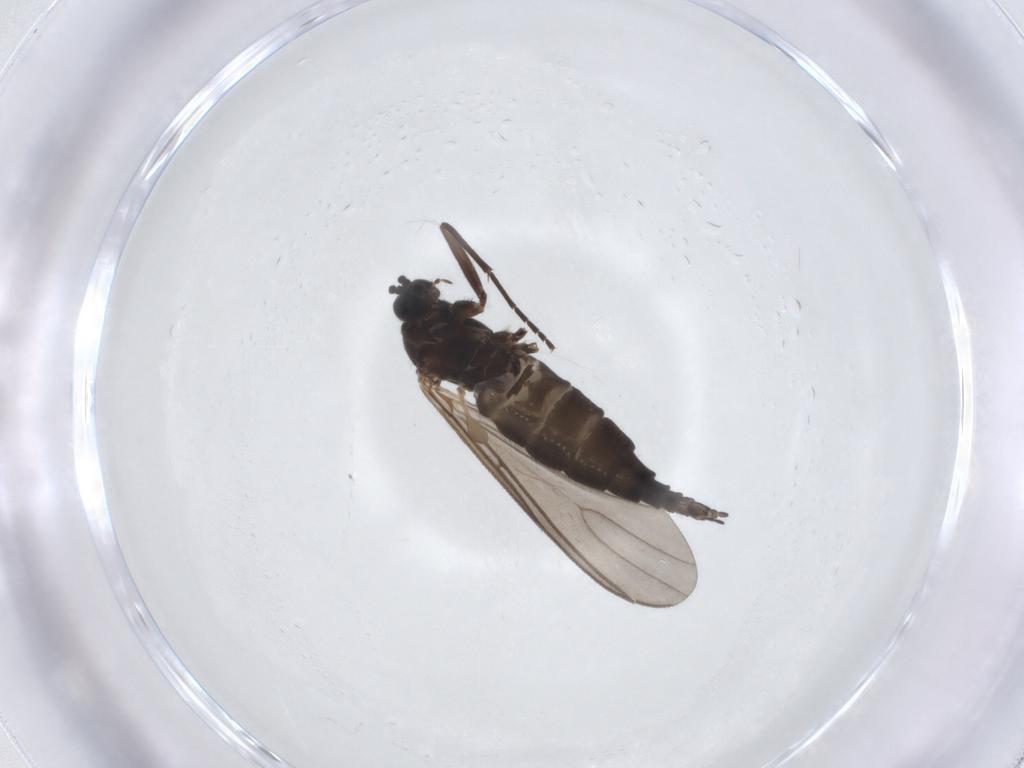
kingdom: Animalia
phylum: Arthropoda
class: Insecta
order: Diptera
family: Sciaridae
